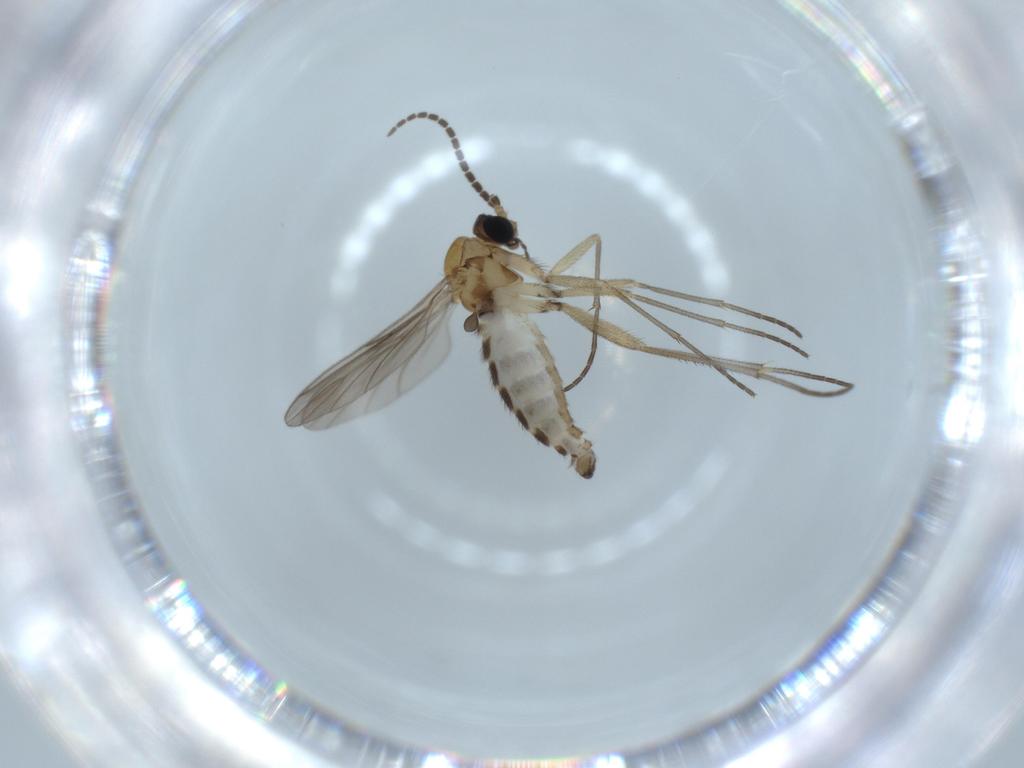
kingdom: Animalia
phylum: Arthropoda
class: Insecta
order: Diptera
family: Sciaridae
